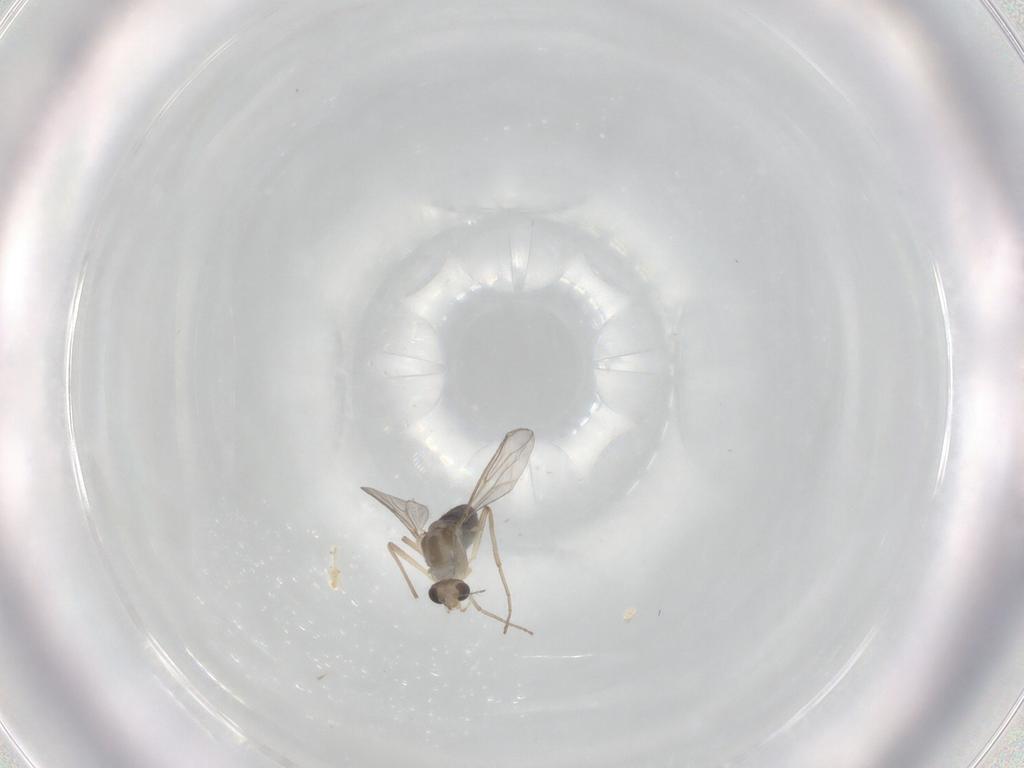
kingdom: Animalia
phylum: Arthropoda
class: Insecta
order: Diptera
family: Chironomidae
